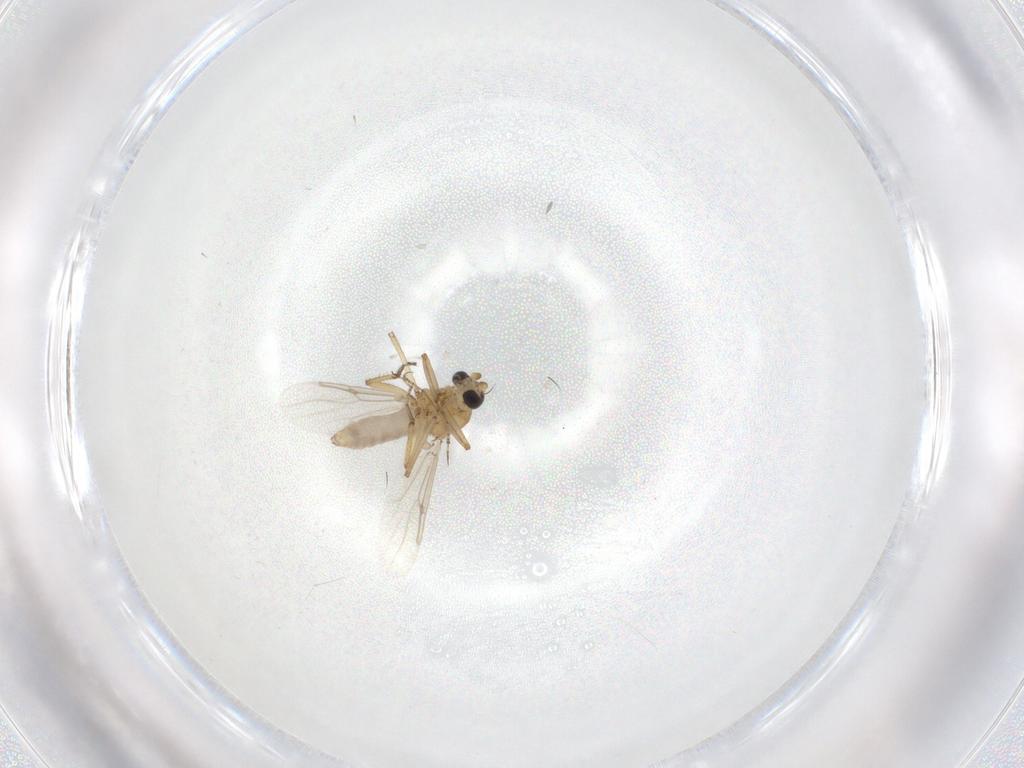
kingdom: Animalia
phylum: Arthropoda
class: Insecta
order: Diptera
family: Ceratopogonidae
